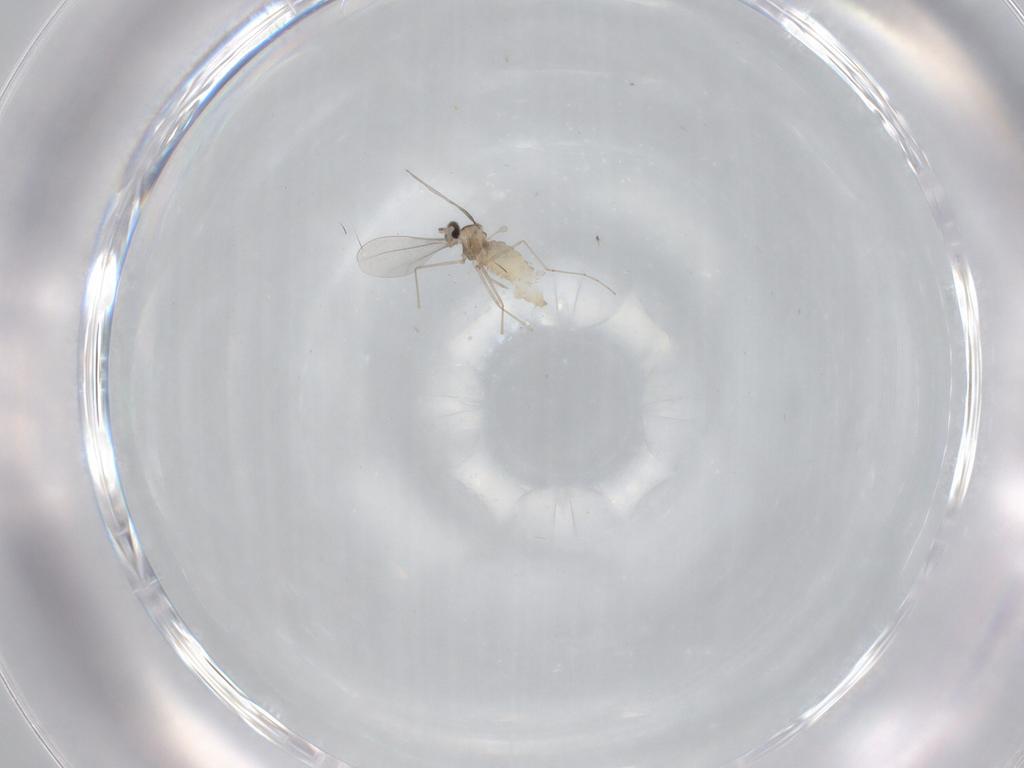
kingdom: Animalia
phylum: Arthropoda
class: Insecta
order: Diptera
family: Cecidomyiidae
